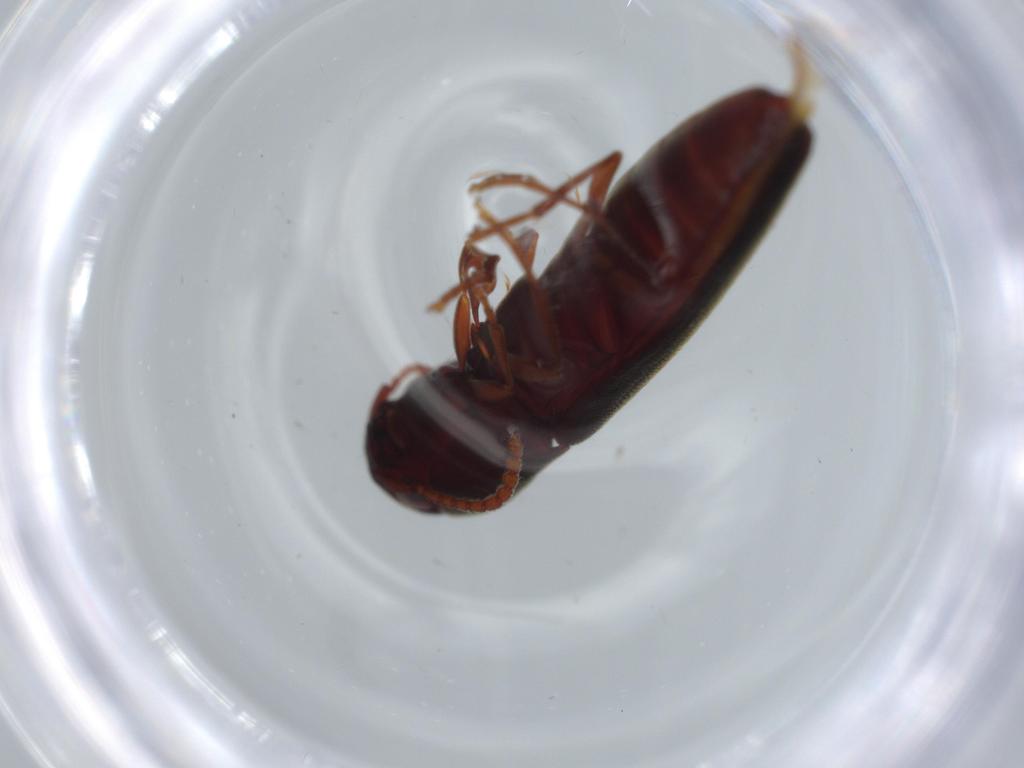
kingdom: Animalia
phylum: Arthropoda
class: Insecta
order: Coleoptera
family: Eucnemidae
